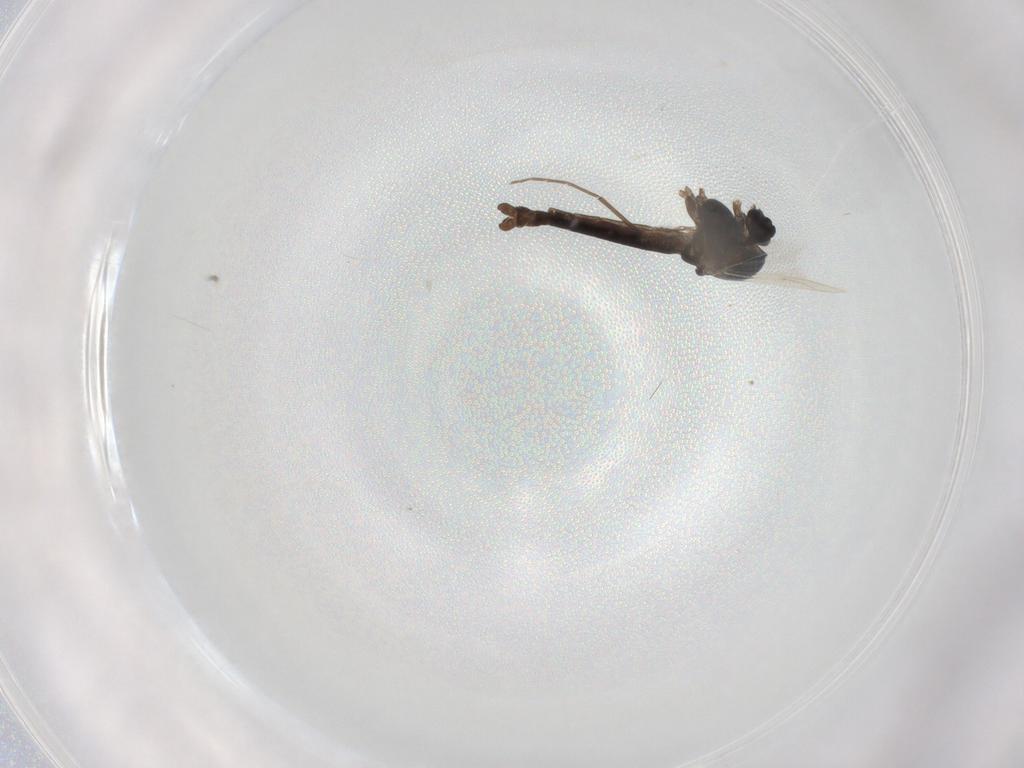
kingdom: Animalia
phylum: Arthropoda
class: Insecta
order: Diptera
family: Chironomidae
